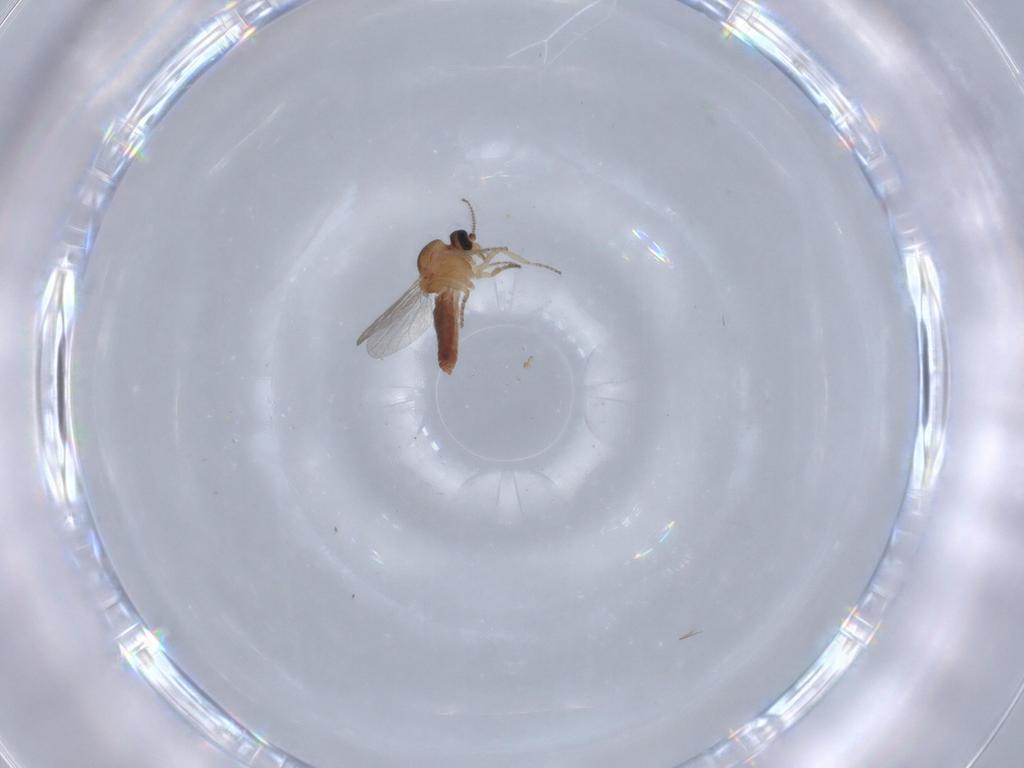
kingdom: Animalia
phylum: Arthropoda
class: Insecta
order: Diptera
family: Ceratopogonidae
